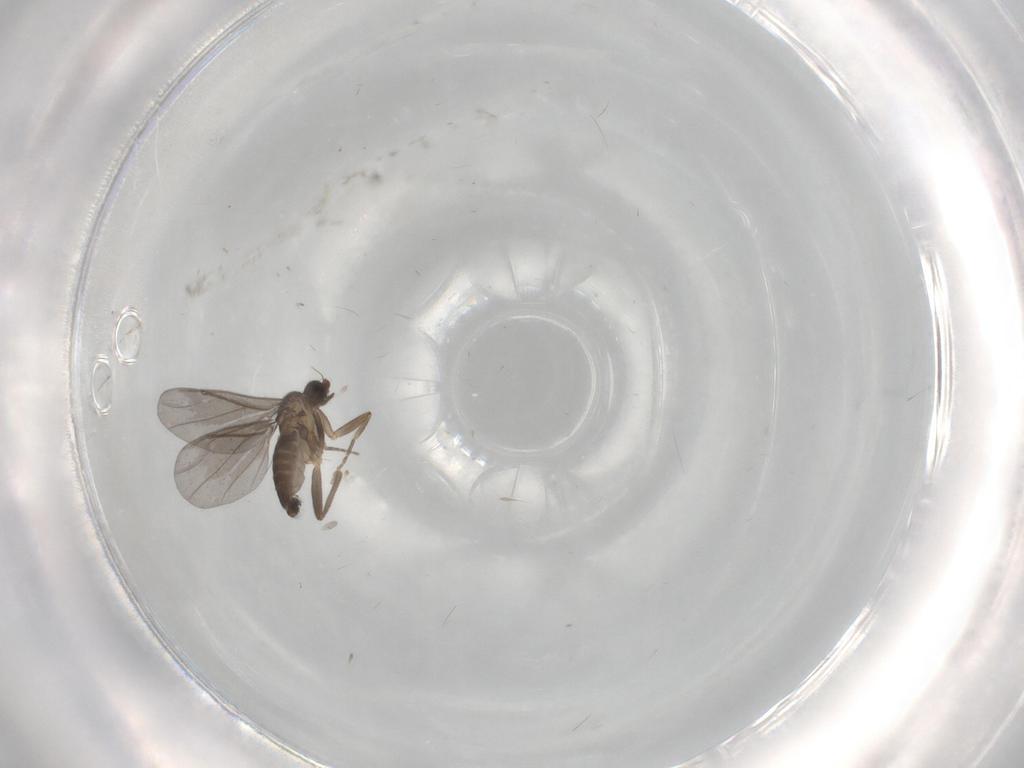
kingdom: Animalia
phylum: Arthropoda
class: Insecta
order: Diptera
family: Phoridae
